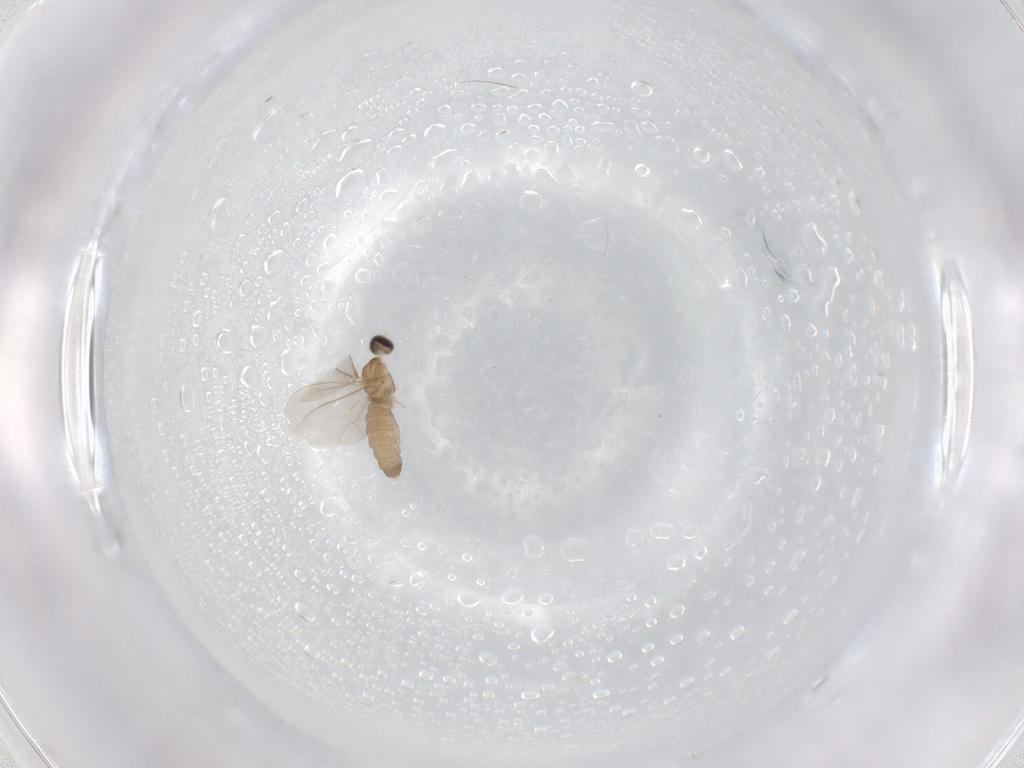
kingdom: Animalia
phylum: Arthropoda
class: Insecta
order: Diptera
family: Cecidomyiidae
